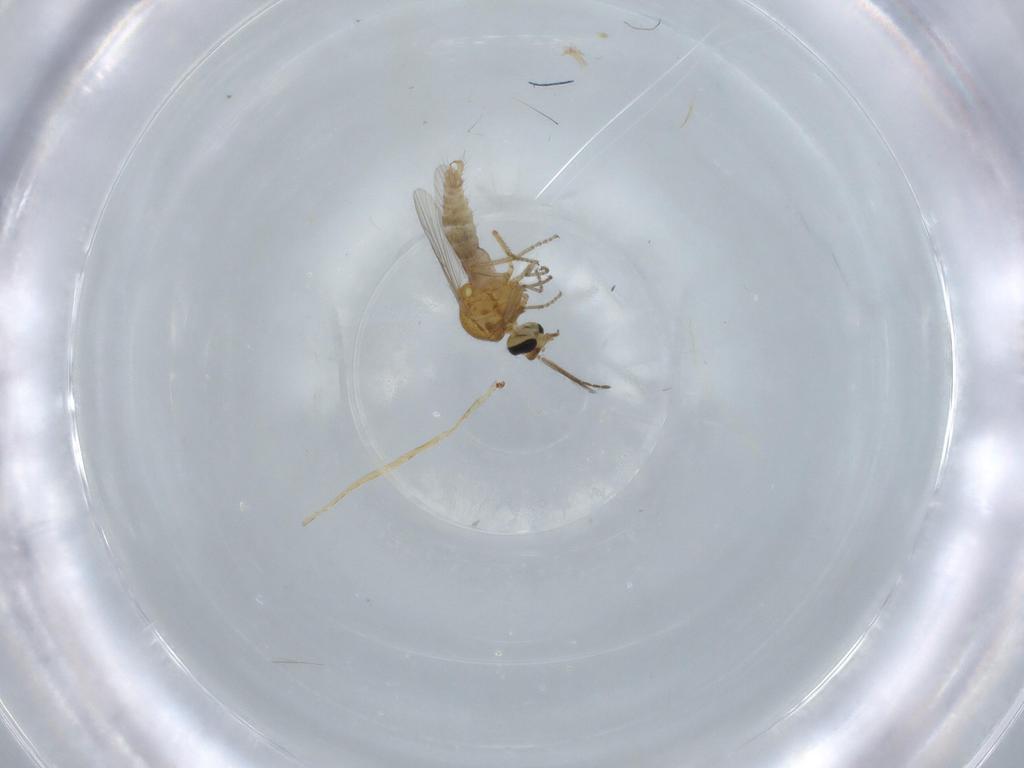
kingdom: Animalia
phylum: Arthropoda
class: Insecta
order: Diptera
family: Ceratopogonidae
